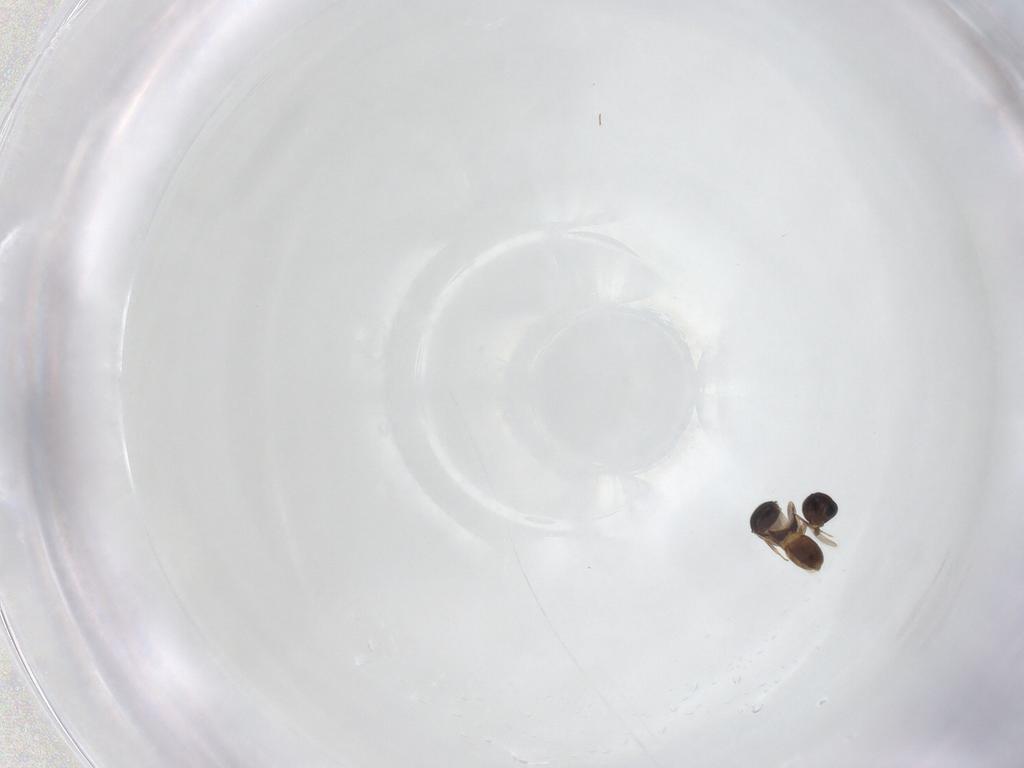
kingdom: Animalia
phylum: Arthropoda
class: Insecta
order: Hymenoptera
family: Scelionidae
